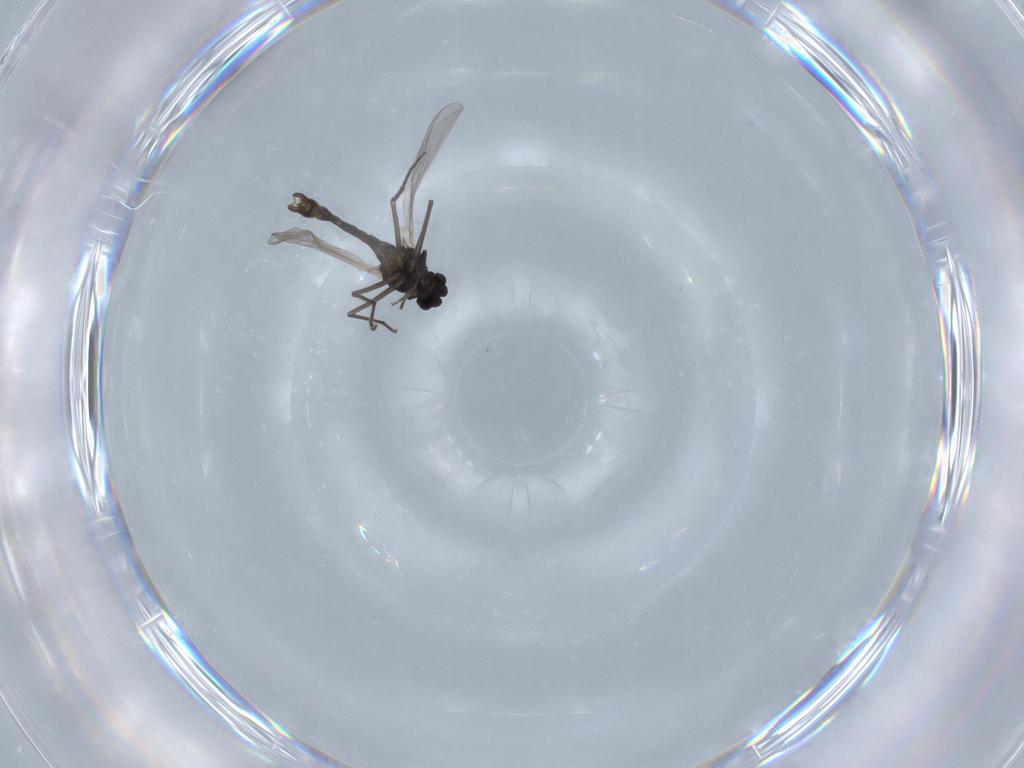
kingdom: Animalia
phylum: Arthropoda
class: Insecta
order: Diptera
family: Chironomidae
